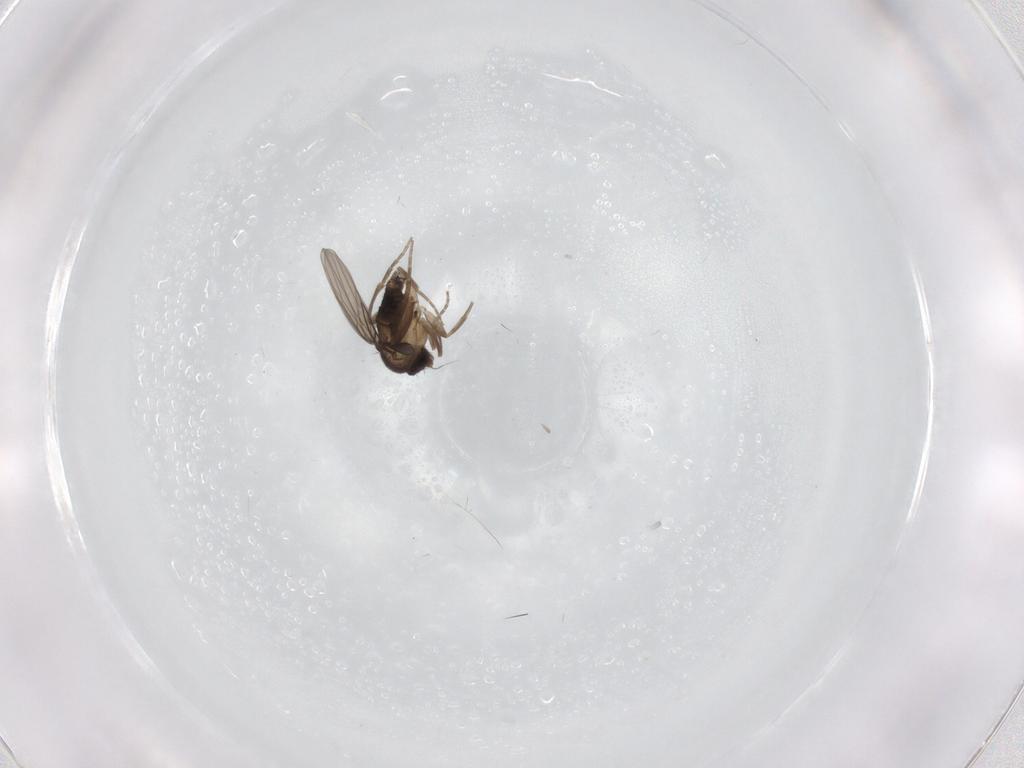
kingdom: Animalia
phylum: Arthropoda
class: Insecta
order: Diptera
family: Sciaridae
